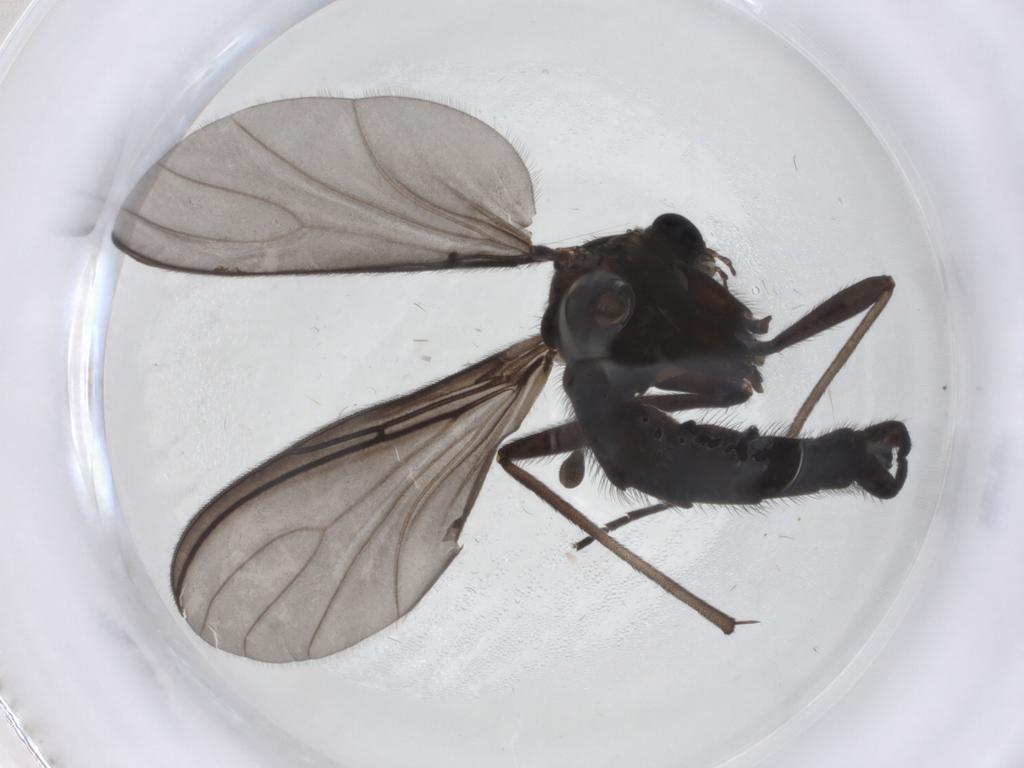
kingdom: Animalia
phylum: Arthropoda
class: Insecta
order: Diptera
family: Sciaridae
